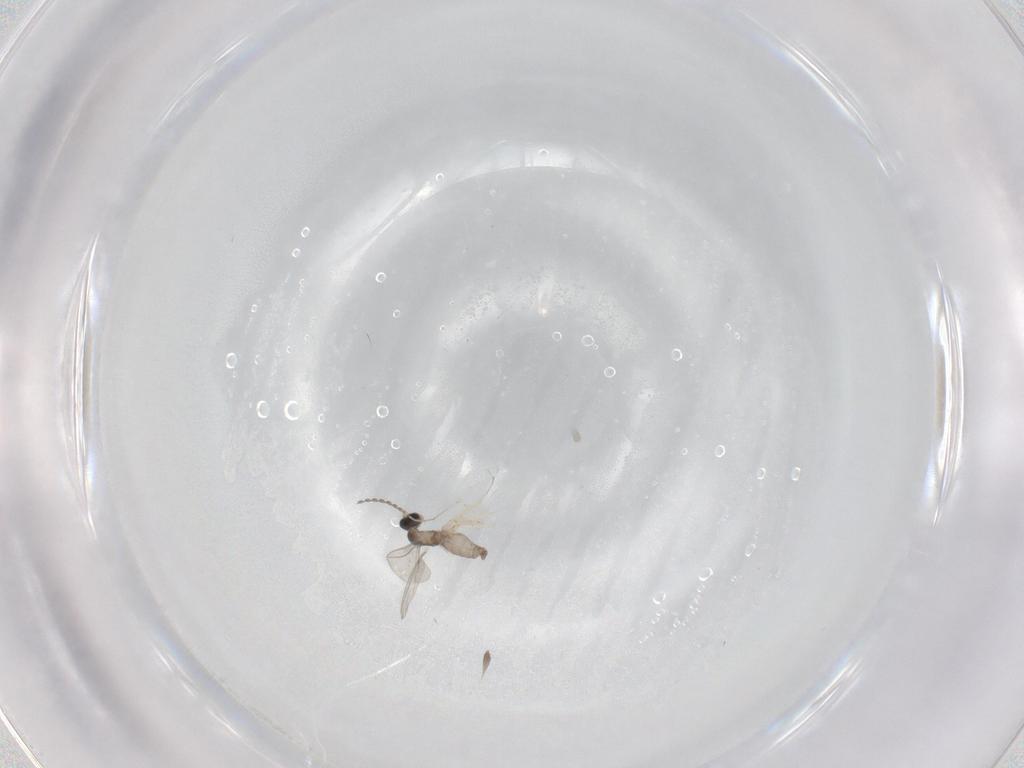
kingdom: Animalia
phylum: Arthropoda
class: Insecta
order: Diptera
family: Cecidomyiidae
